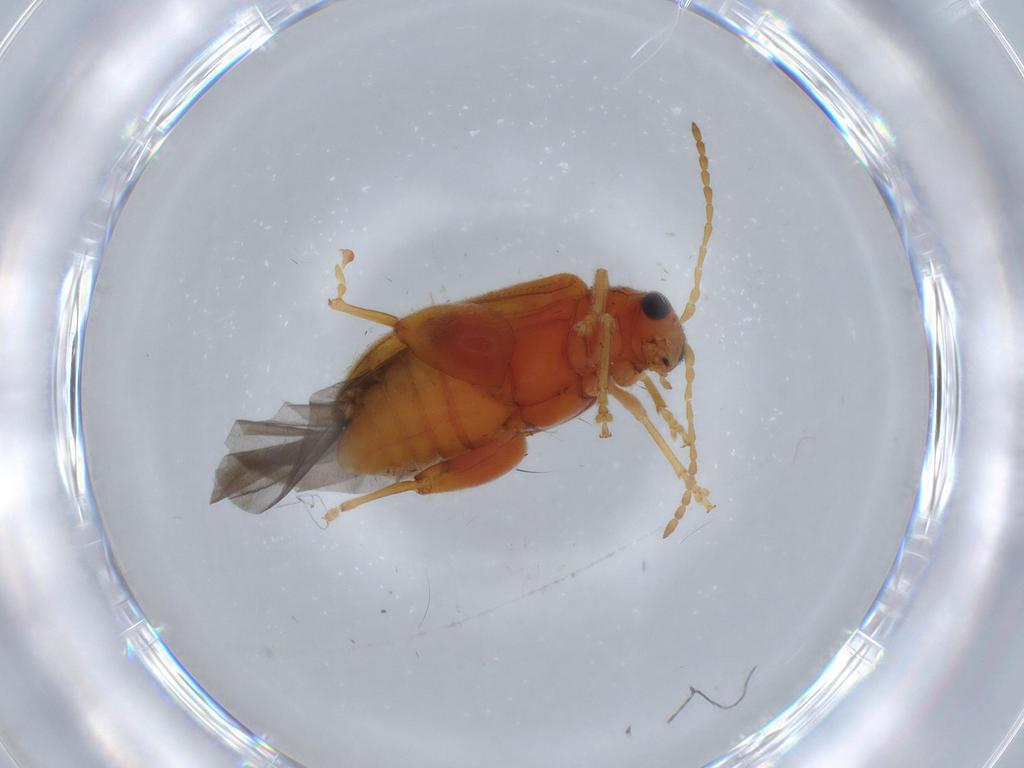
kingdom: Animalia
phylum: Arthropoda
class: Insecta
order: Coleoptera
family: Chrysomelidae
